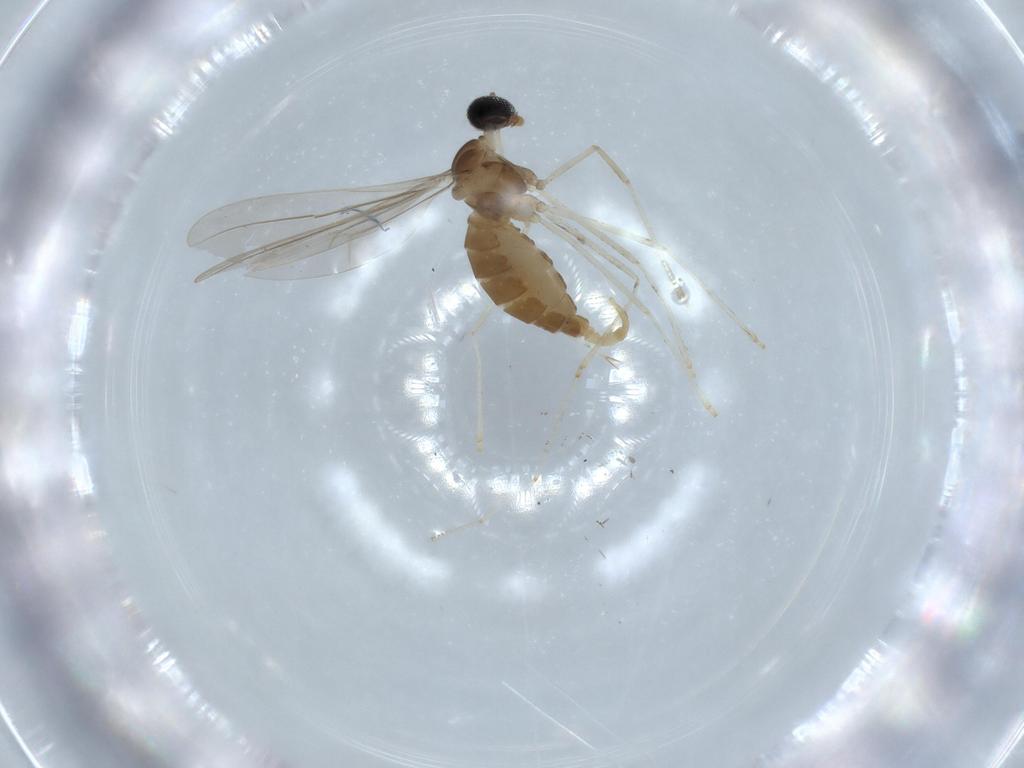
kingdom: Animalia
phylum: Arthropoda
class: Insecta
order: Diptera
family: Cecidomyiidae
